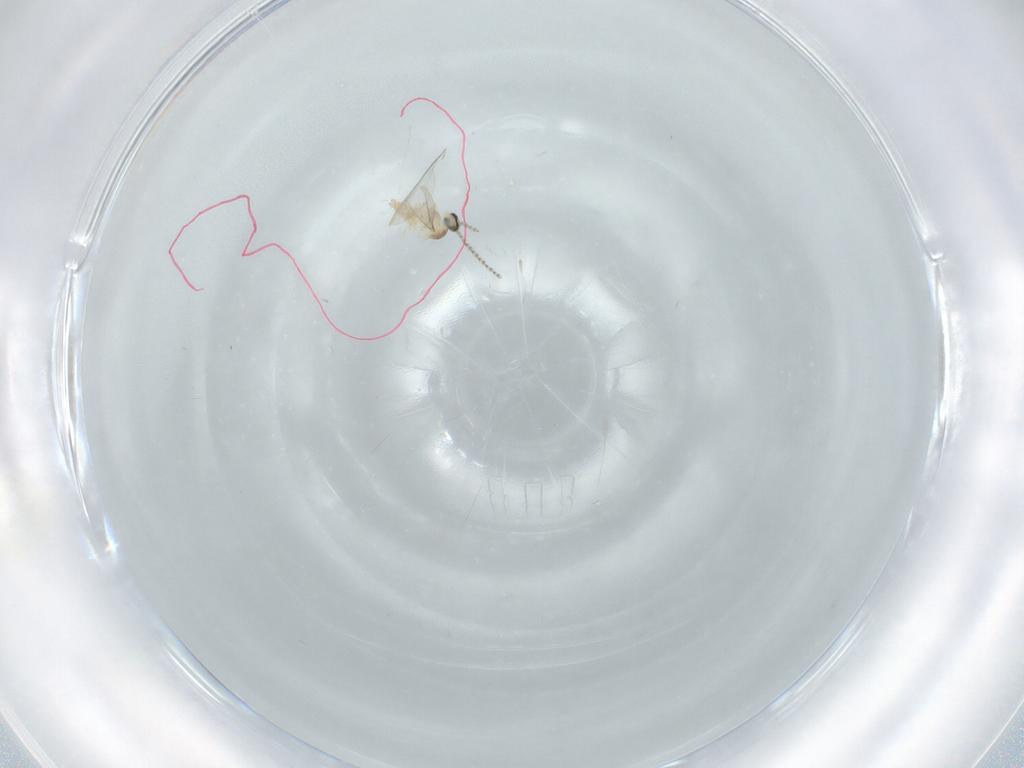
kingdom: Animalia
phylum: Arthropoda
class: Insecta
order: Diptera
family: Cecidomyiidae
